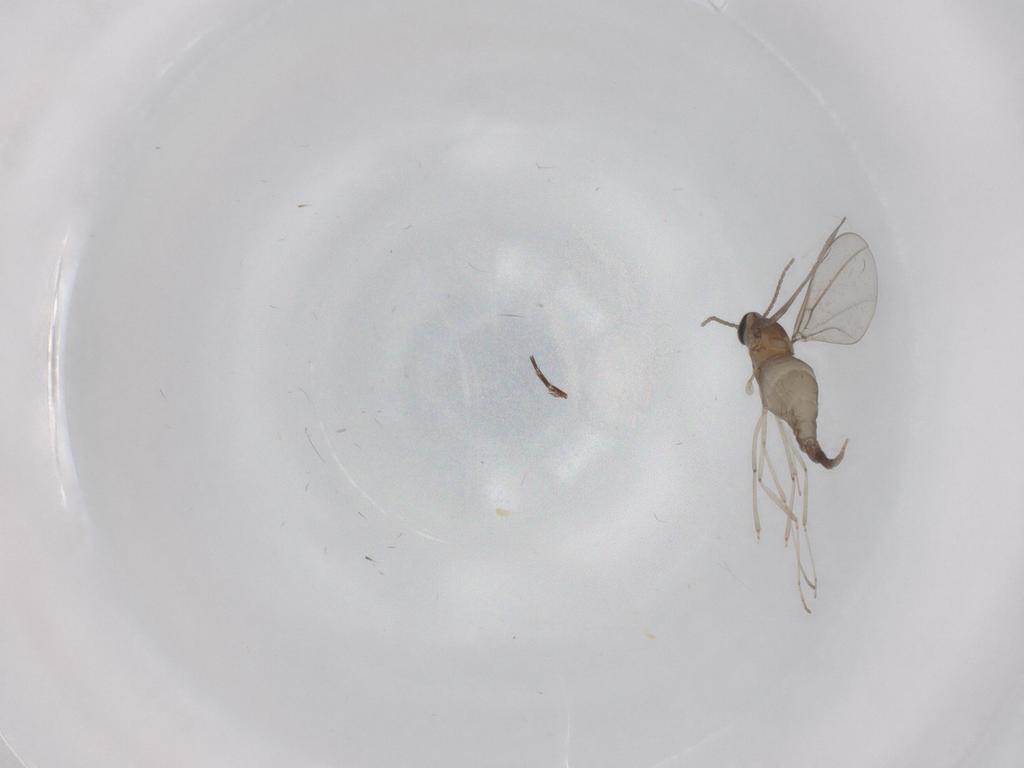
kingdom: Animalia
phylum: Arthropoda
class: Insecta
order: Diptera
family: Cecidomyiidae
